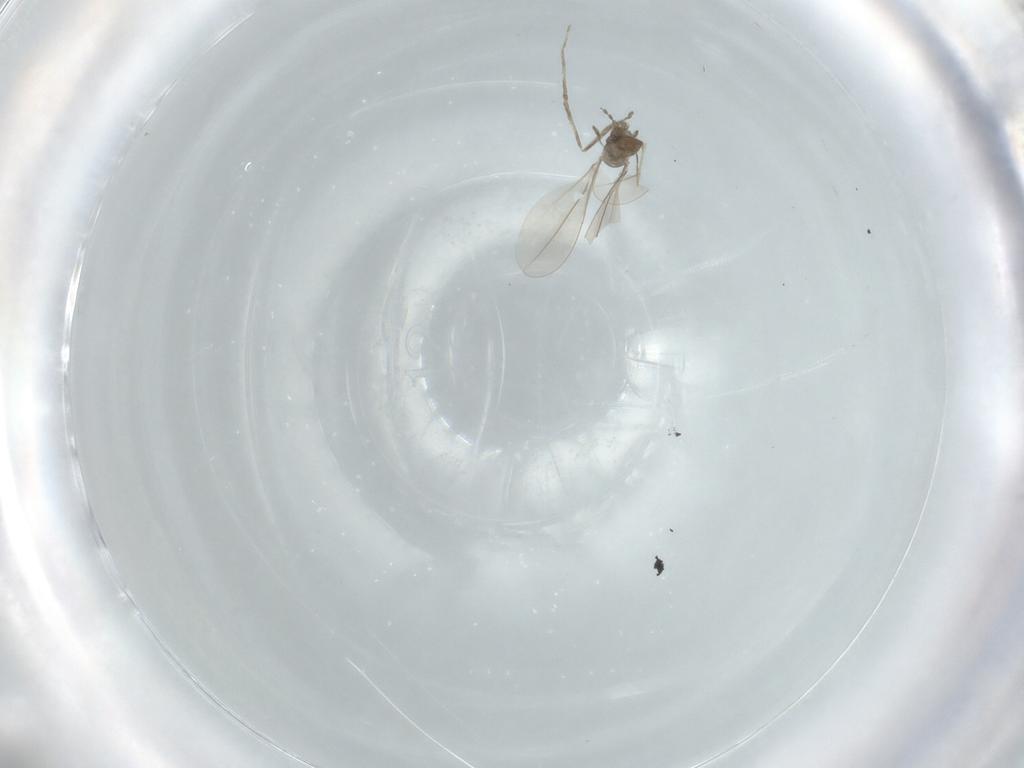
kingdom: Animalia
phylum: Arthropoda
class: Insecta
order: Diptera
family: Cecidomyiidae
